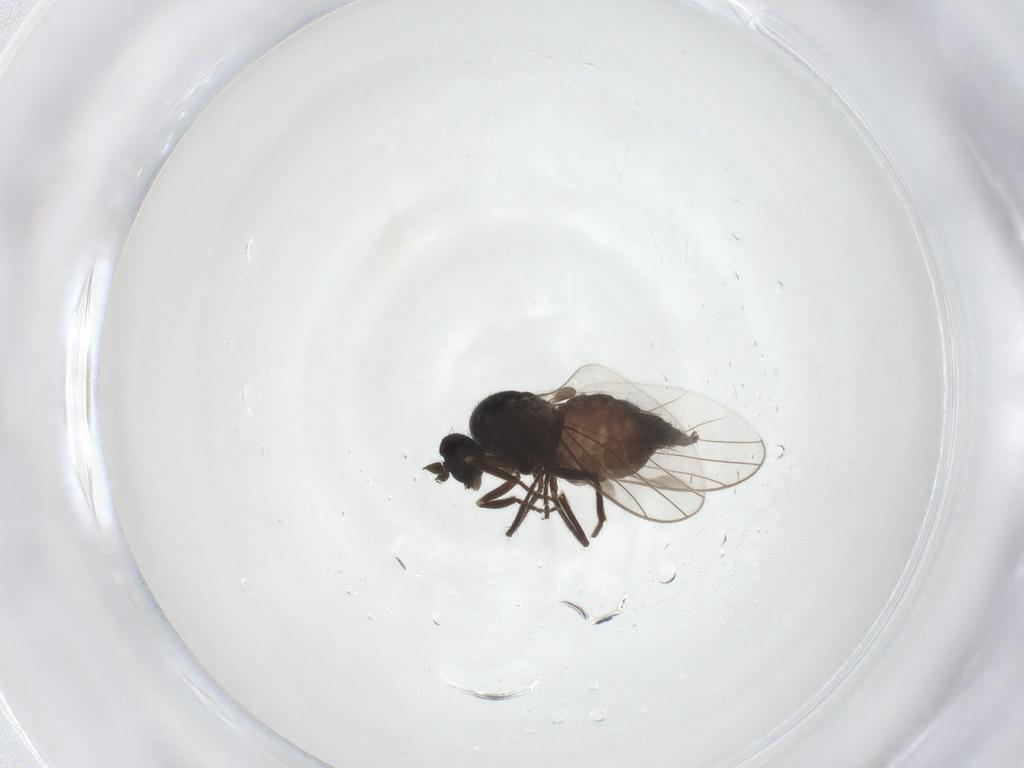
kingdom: Animalia
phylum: Arthropoda
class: Insecta
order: Diptera
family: Hybotidae
